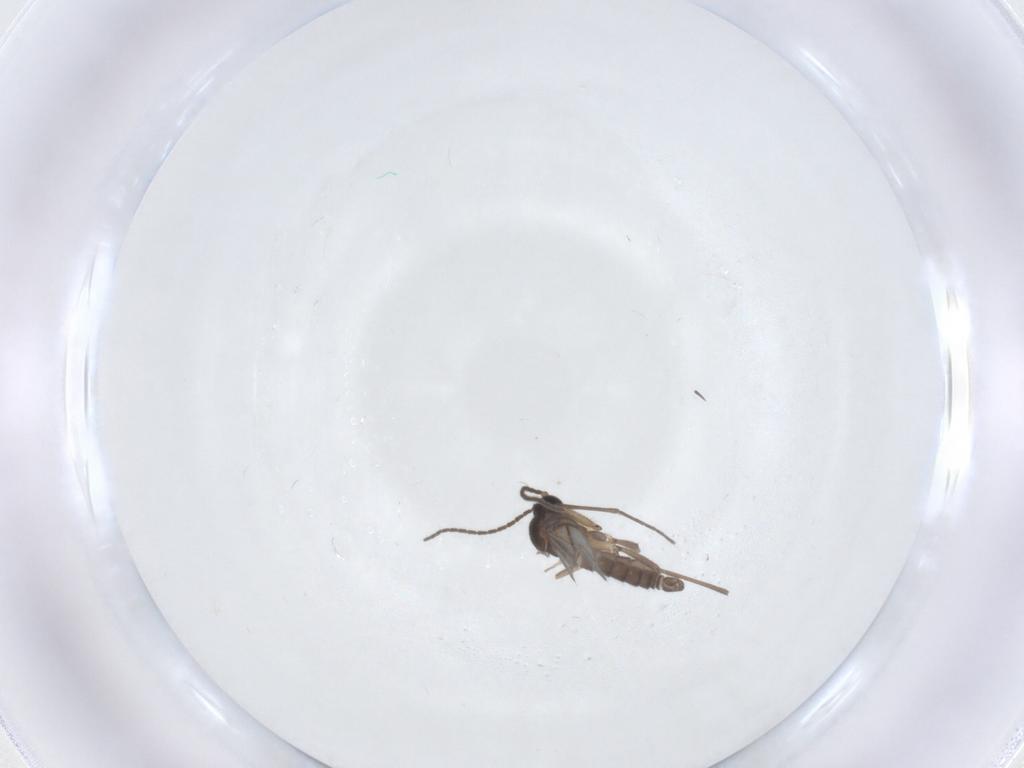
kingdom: Animalia
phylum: Arthropoda
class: Insecta
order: Diptera
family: Sciaridae
